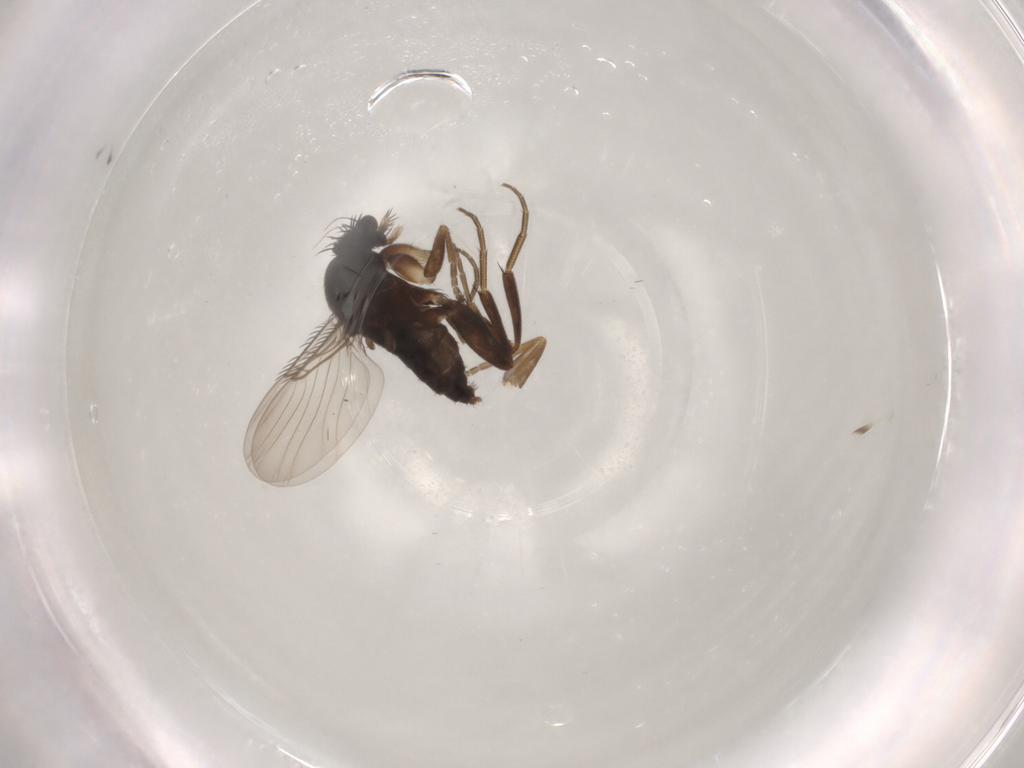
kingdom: Animalia
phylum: Arthropoda
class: Insecta
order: Diptera
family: Phoridae
